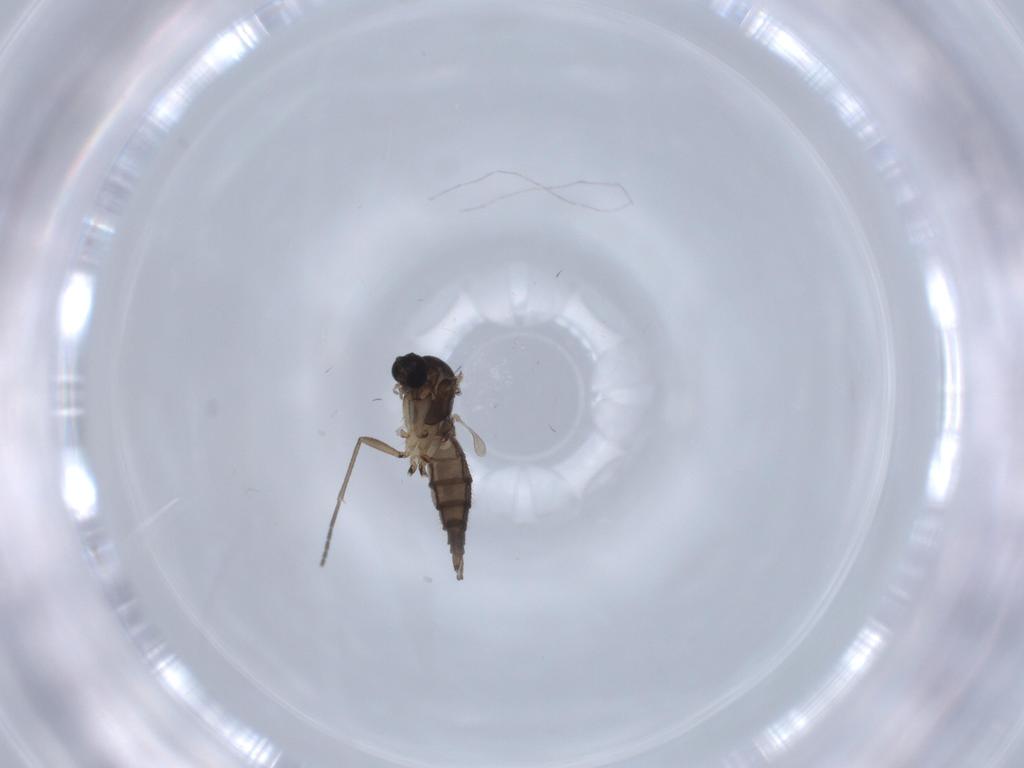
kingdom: Animalia
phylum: Arthropoda
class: Insecta
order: Diptera
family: Sciaridae
